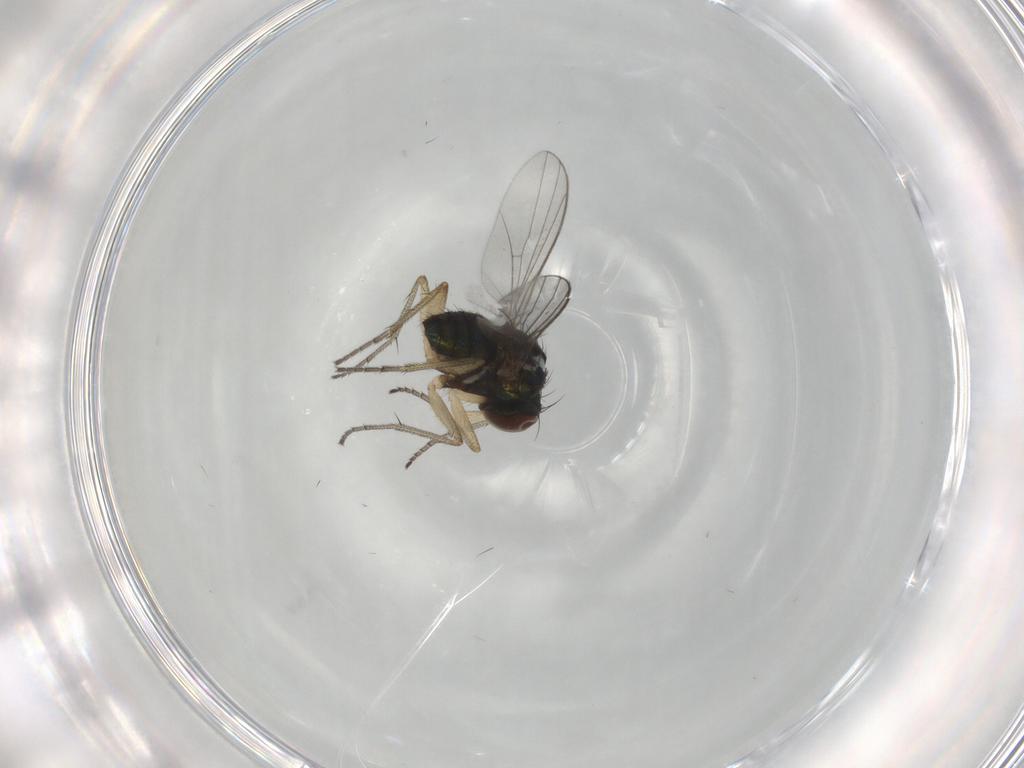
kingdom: Animalia
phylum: Arthropoda
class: Insecta
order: Diptera
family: Dolichopodidae
